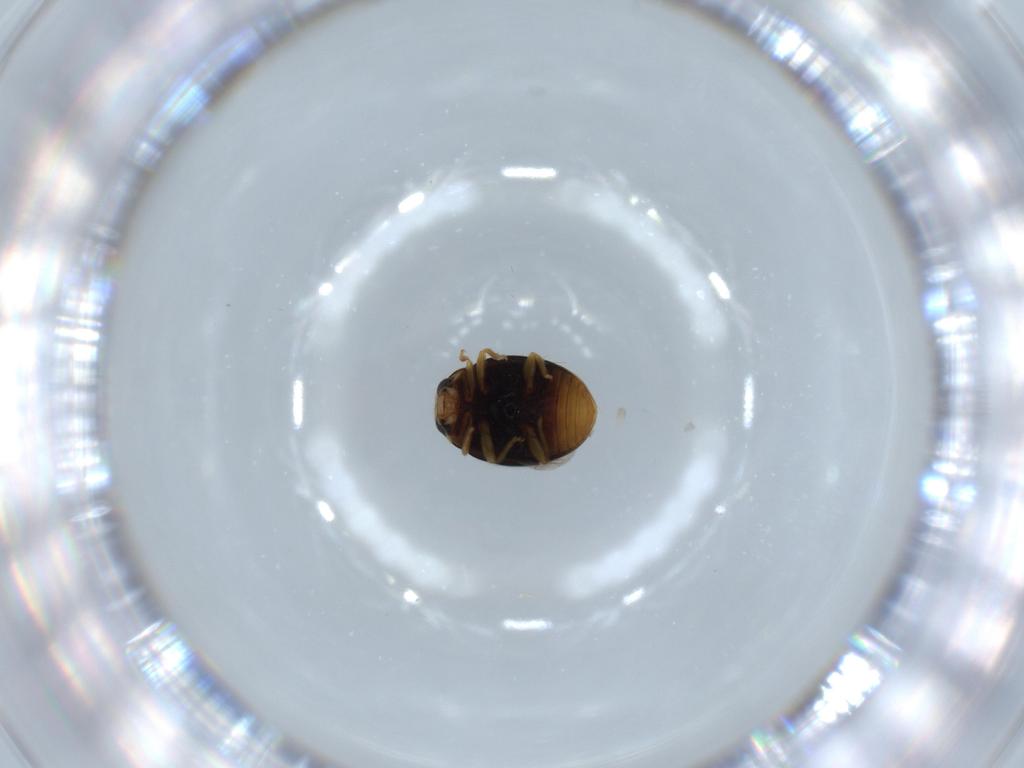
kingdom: Animalia
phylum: Arthropoda
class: Insecta
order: Coleoptera
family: Coccinellidae
